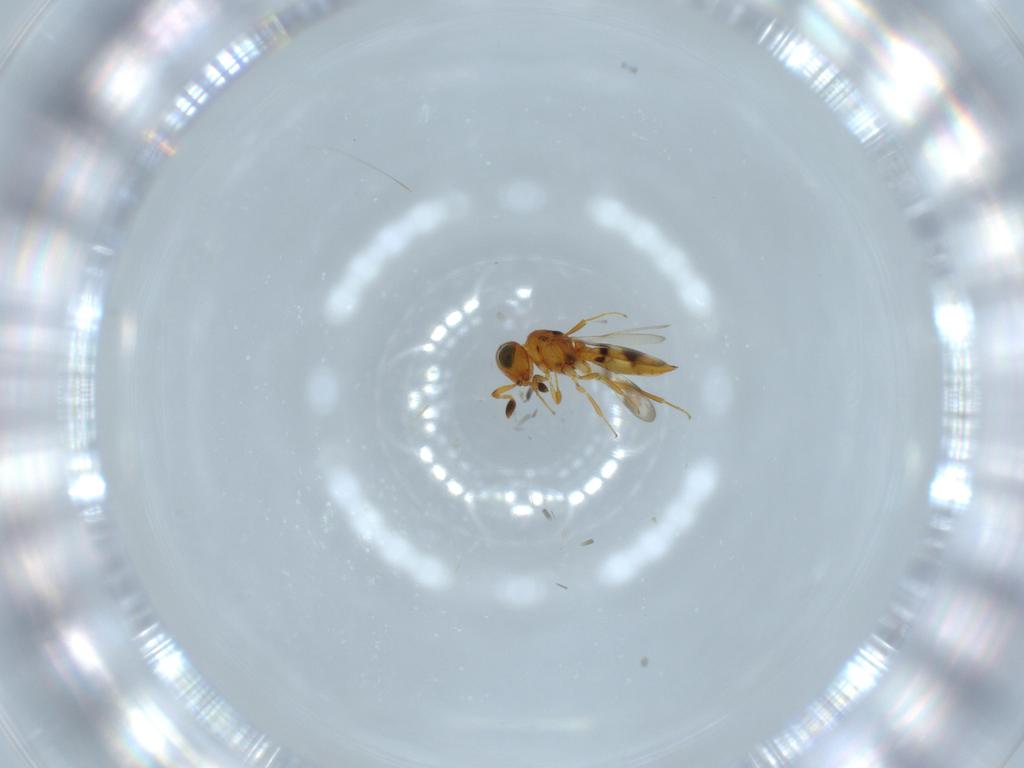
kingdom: Animalia
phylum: Arthropoda
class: Insecta
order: Hymenoptera
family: Scelionidae
